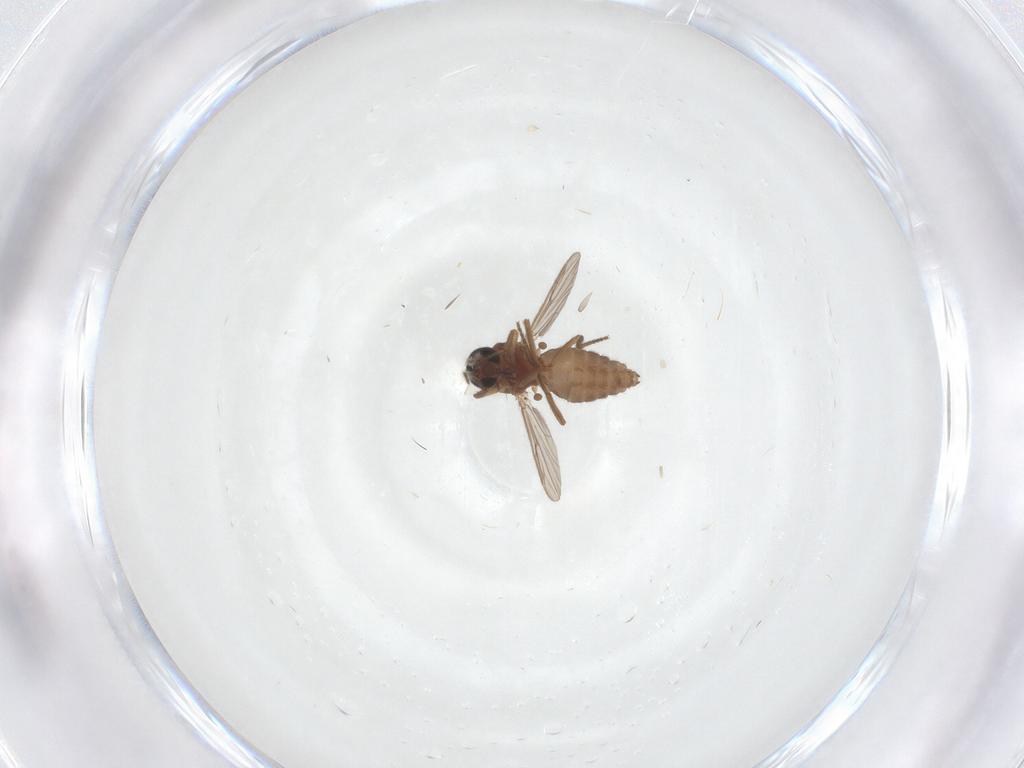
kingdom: Animalia
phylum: Arthropoda
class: Insecta
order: Diptera
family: Ceratopogonidae
